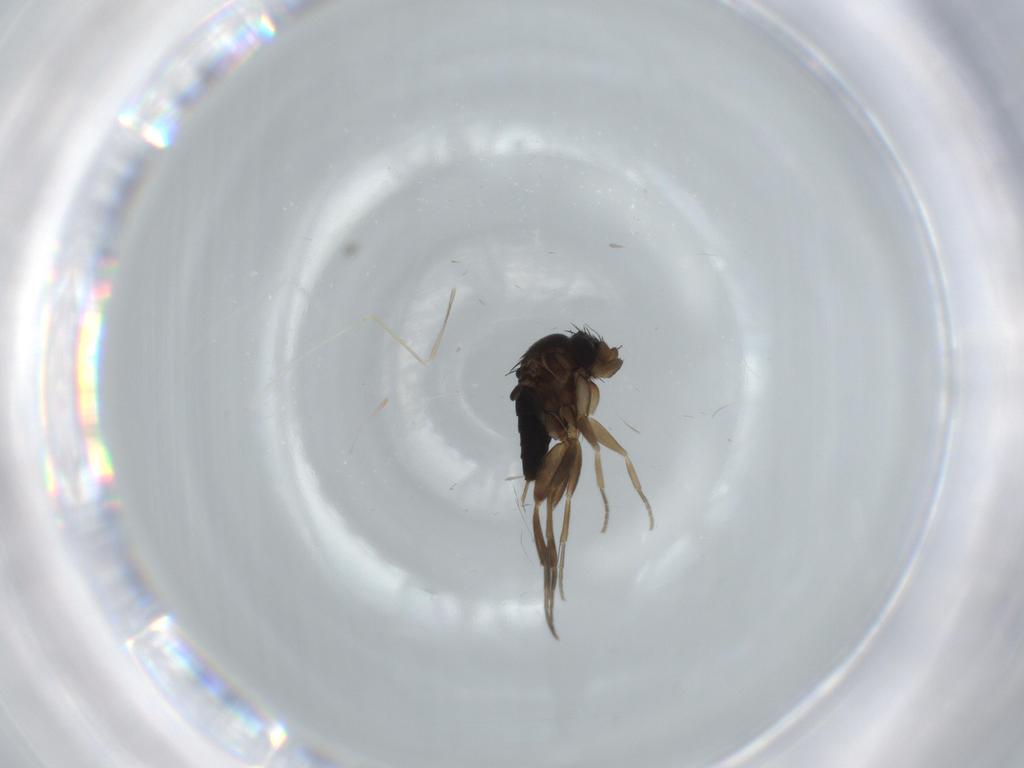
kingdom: Animalia
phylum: Arthropoda
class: Insecta
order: Diptera
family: Phoridae
